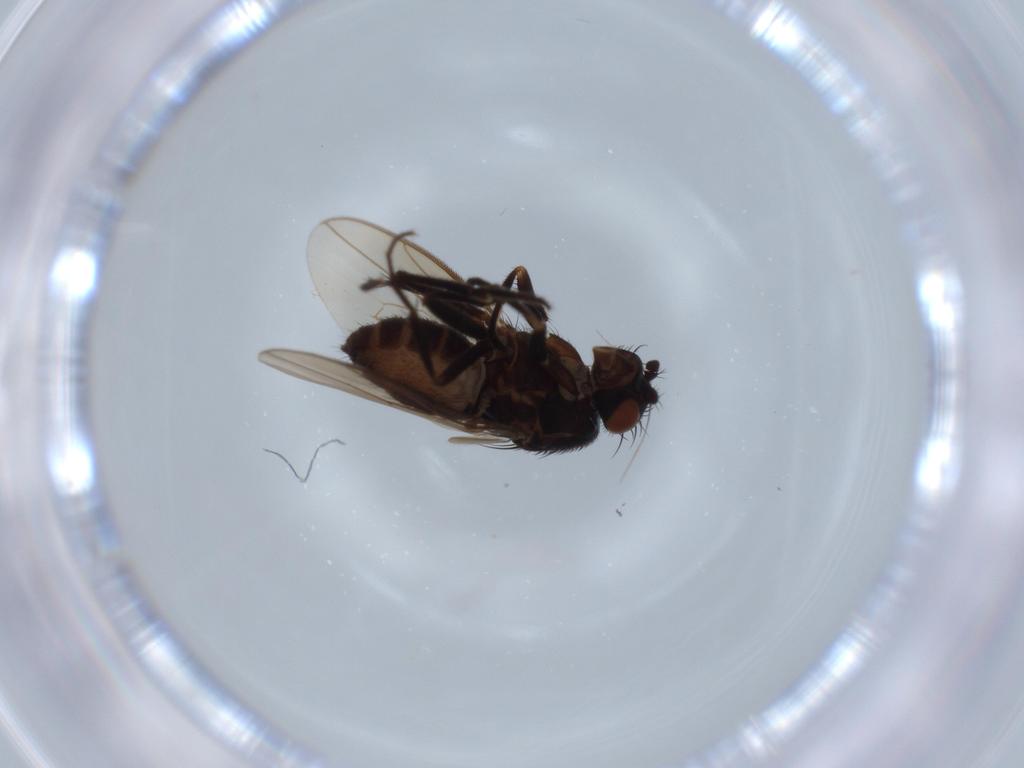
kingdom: Animalia
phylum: Arthropoda
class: Insecta
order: Diptera
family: Sphaeroceridae
